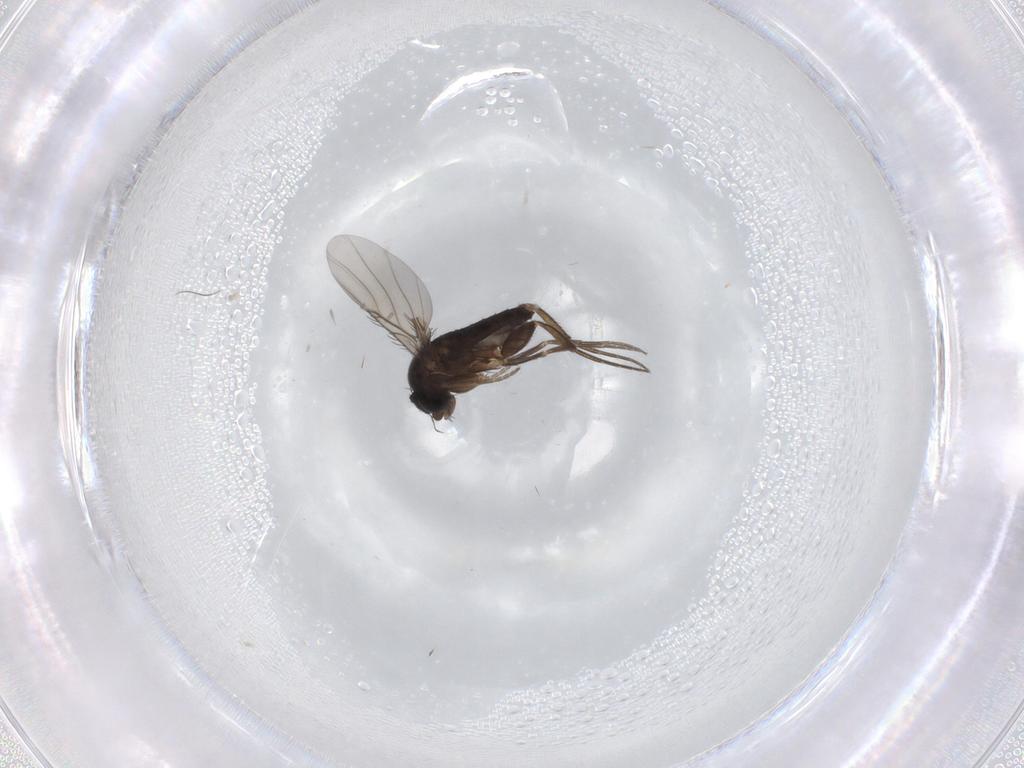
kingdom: Animalia
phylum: Arthropoda
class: Insecta
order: Diptera
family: Phoridae
